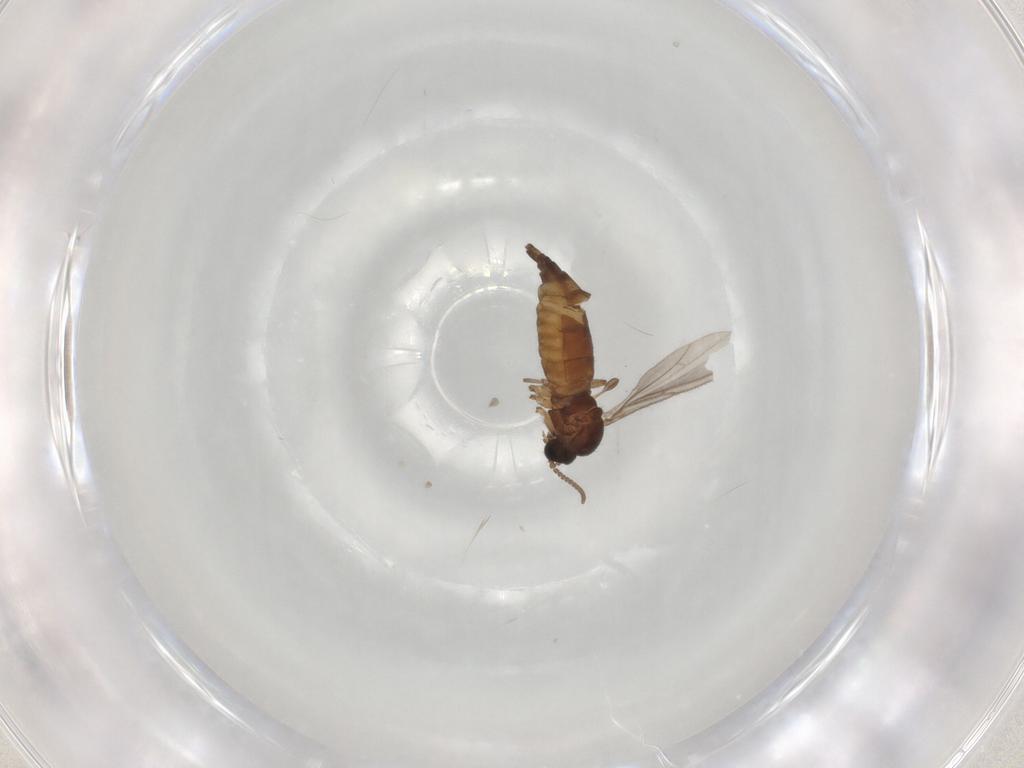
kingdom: Animalia
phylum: Arthropoda
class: Insecta
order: Diptera
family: Sciaridae
